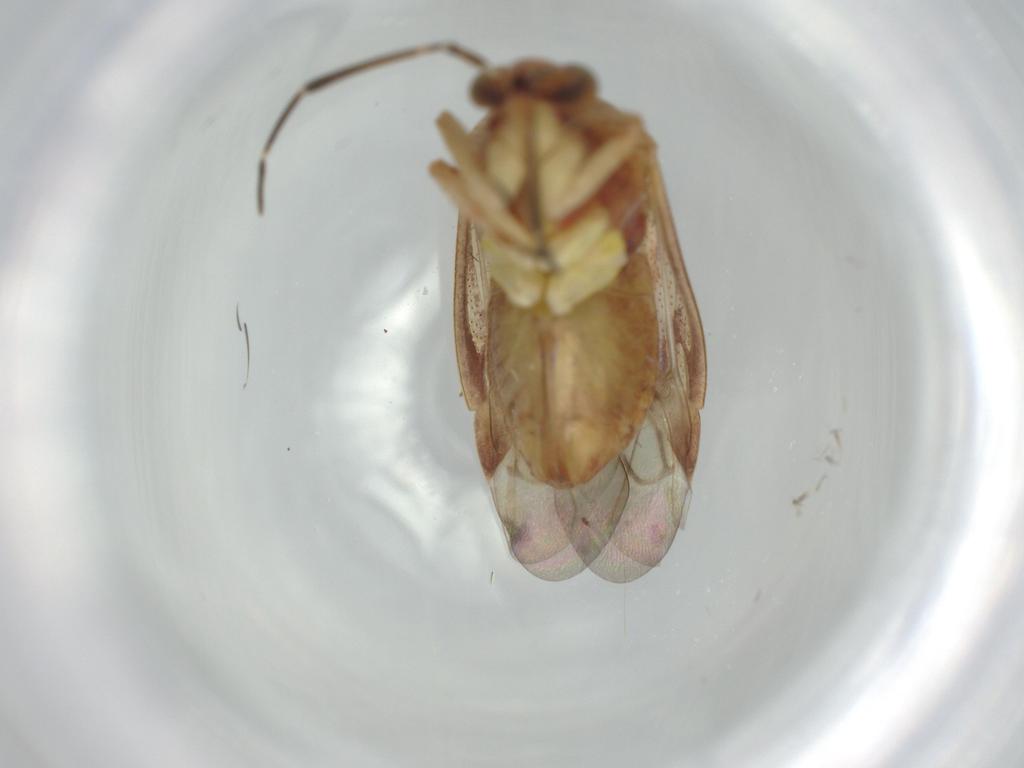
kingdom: Animalia
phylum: Arthropoda
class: Insecta
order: Hemiptera
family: Miridae
